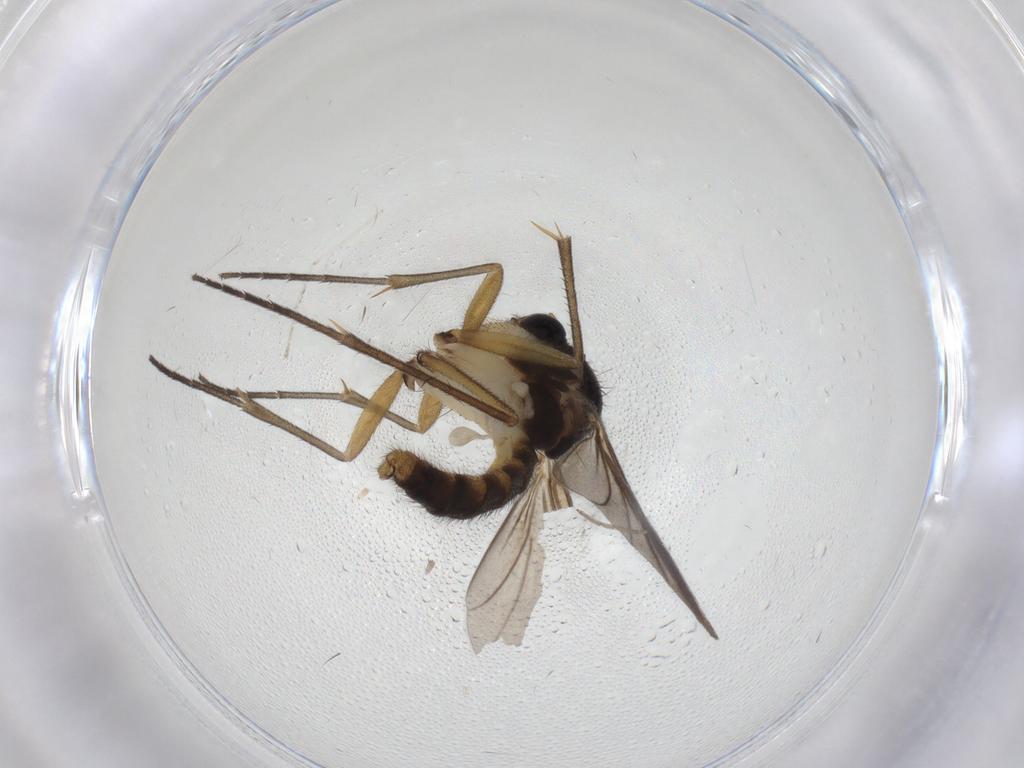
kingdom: Animalia
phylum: Arthropoda
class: Insecta
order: Diptera
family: Mycetophilidae
